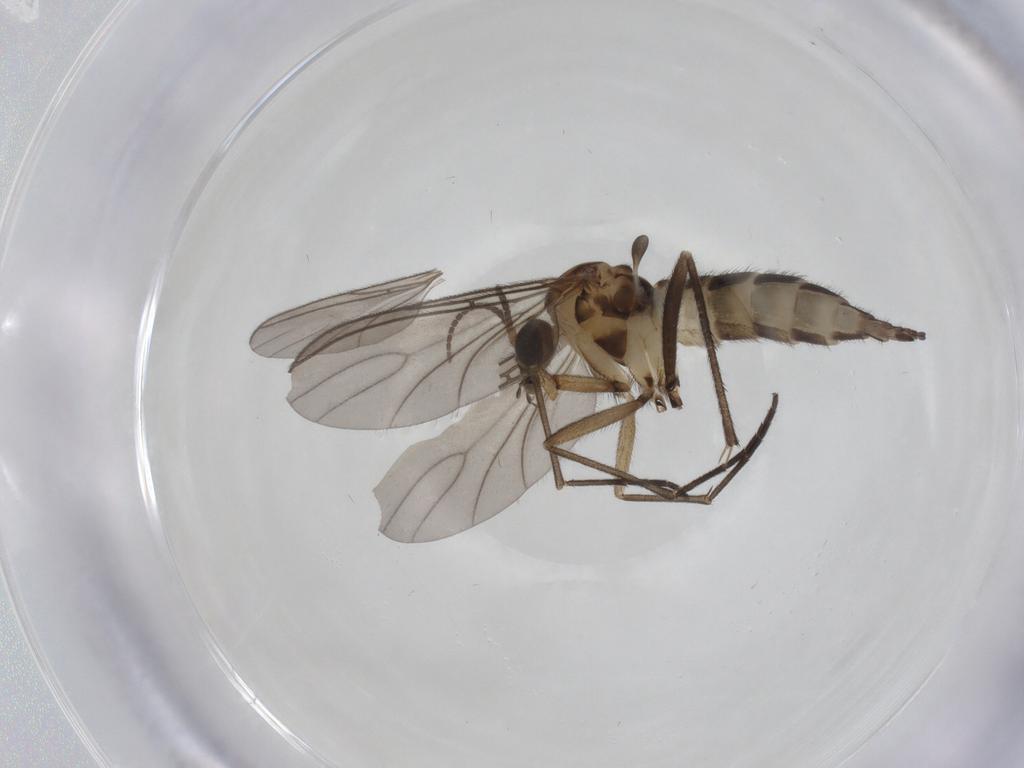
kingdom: Animalia
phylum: Arthropoda
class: Insecta
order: Diptera
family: Sciaridae
